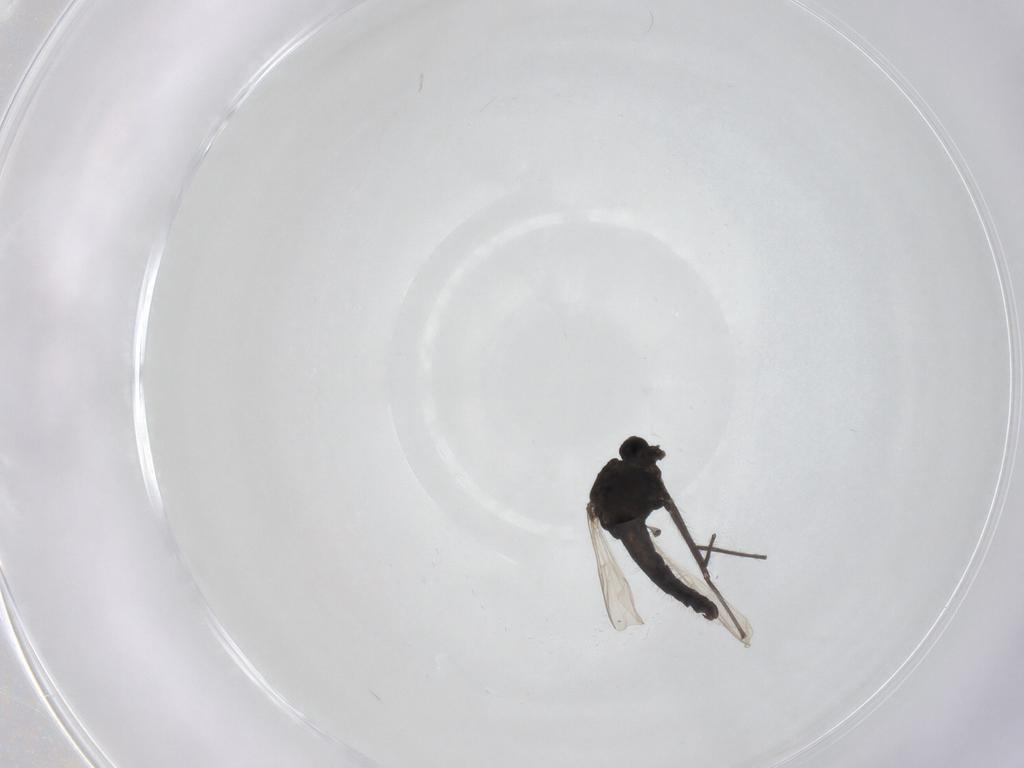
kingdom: Animalia
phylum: Arthropoda
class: Insecta
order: Diptera
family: Chironomidae
